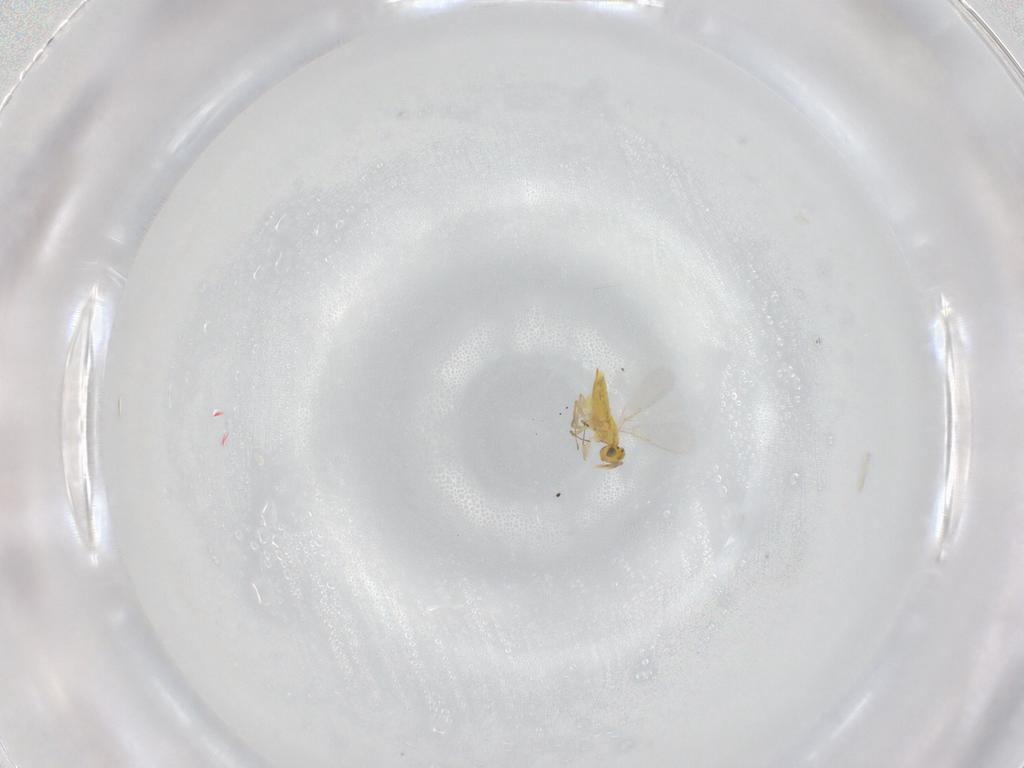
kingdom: Animalia
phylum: Arthropoda
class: Insecta
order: Hymenoptera
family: Aphelinidae
